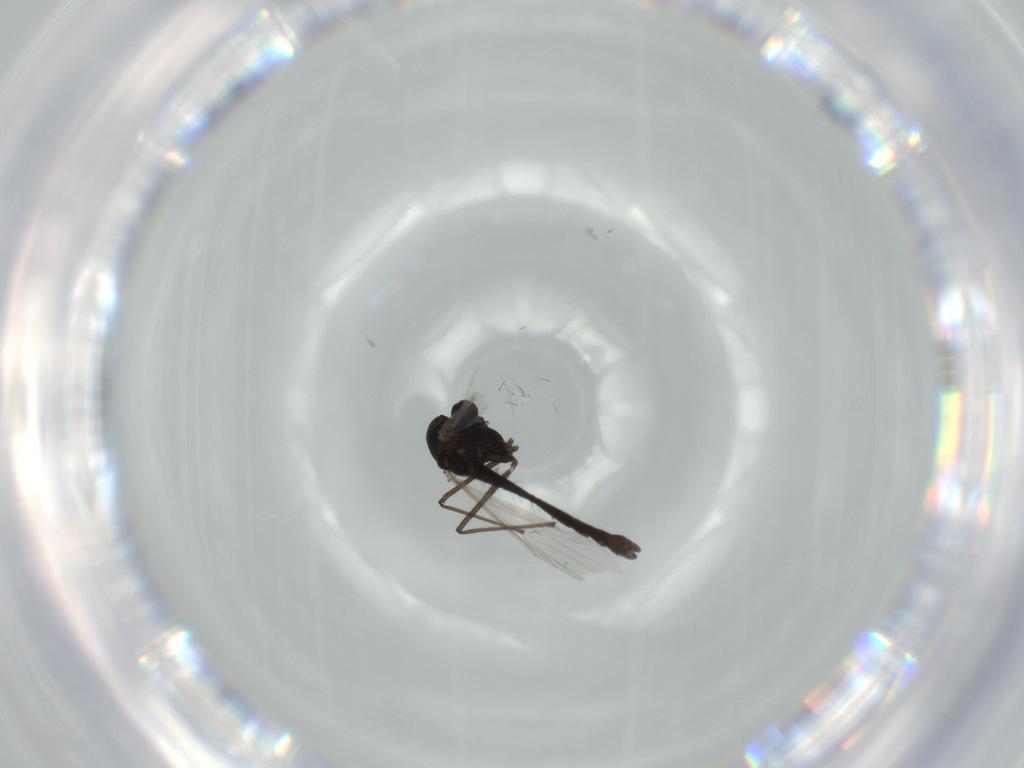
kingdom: Animalia
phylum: Arthropoda
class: Insecta
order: Diptera
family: Chironomidae
